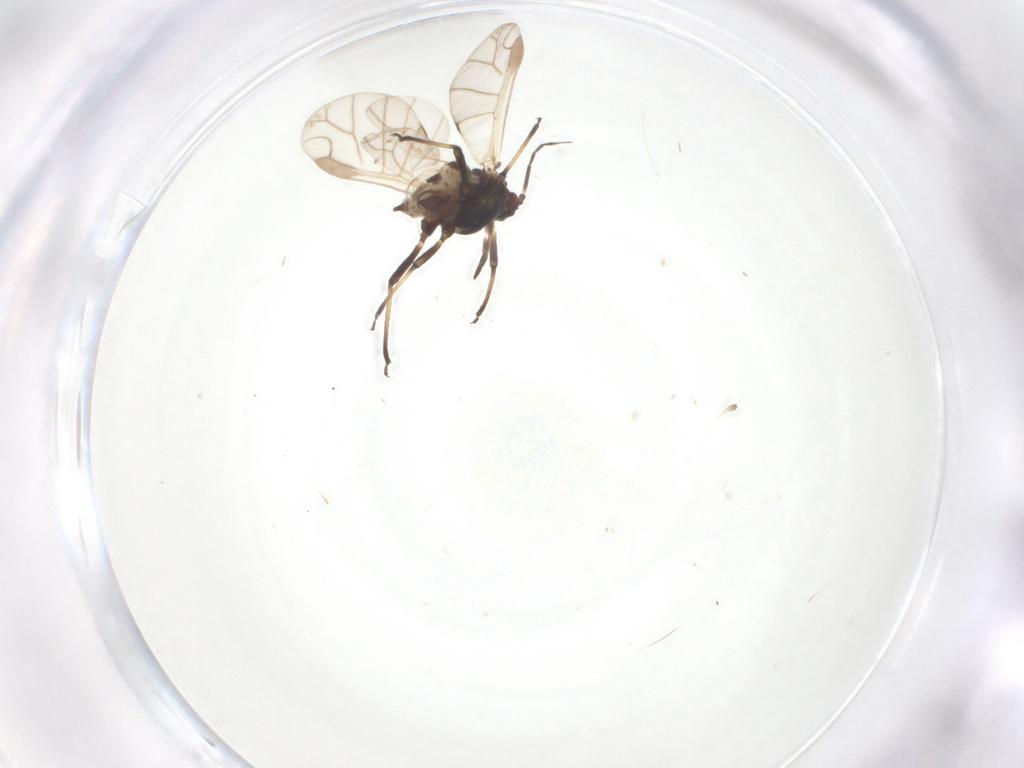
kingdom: Animalia
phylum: Arthropoda
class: Insecta
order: Hemiptera
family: Aphididae
